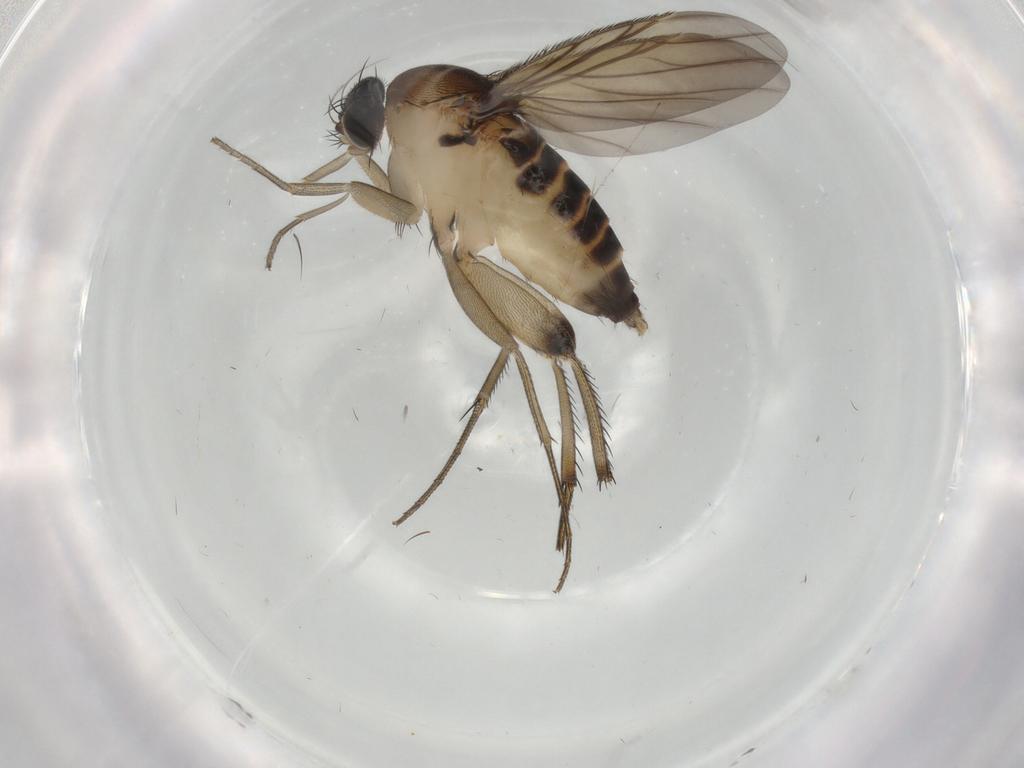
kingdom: Animalia
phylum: Arthropoda
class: Insecta
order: Diptera
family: Phoridae
